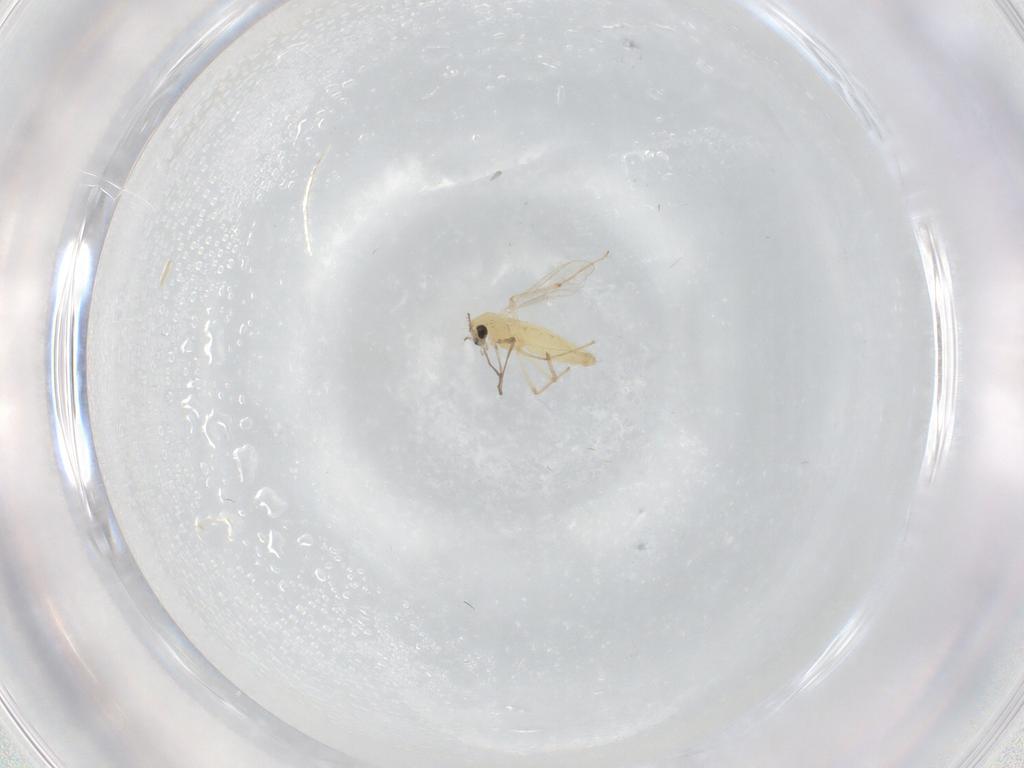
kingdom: Animalia
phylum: Arthropoda
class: Insecta
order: Diptera
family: Chironomidae
